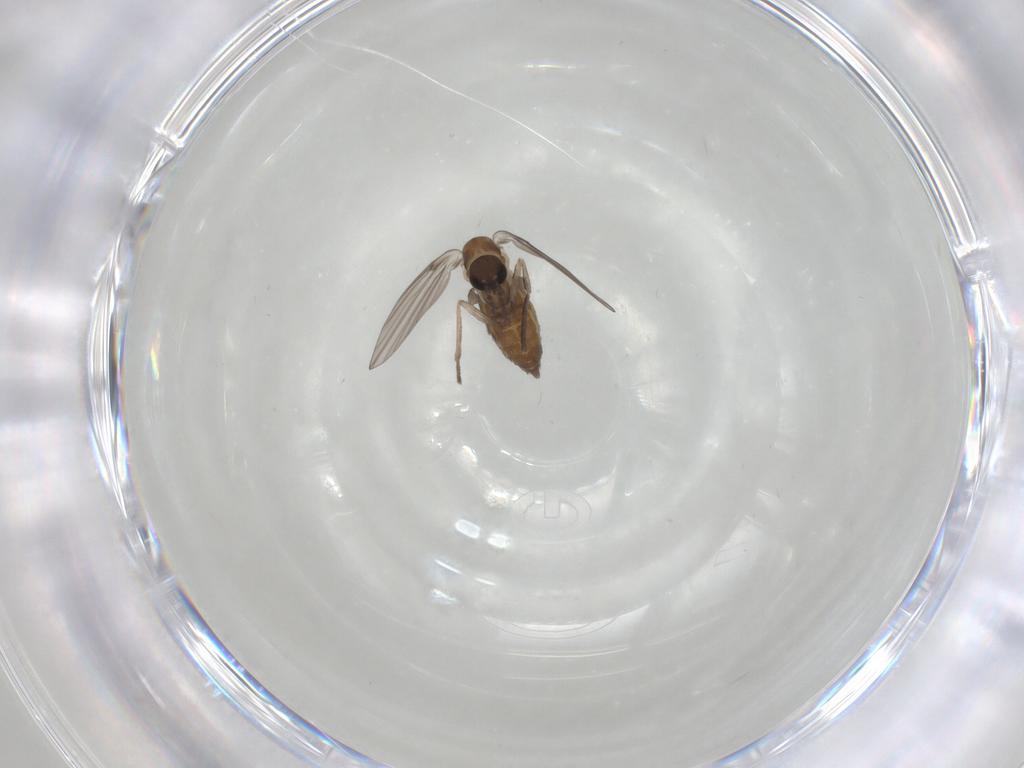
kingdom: Animalia
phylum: Arthropoda
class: Insecta
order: Diptera
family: Psychodidae
